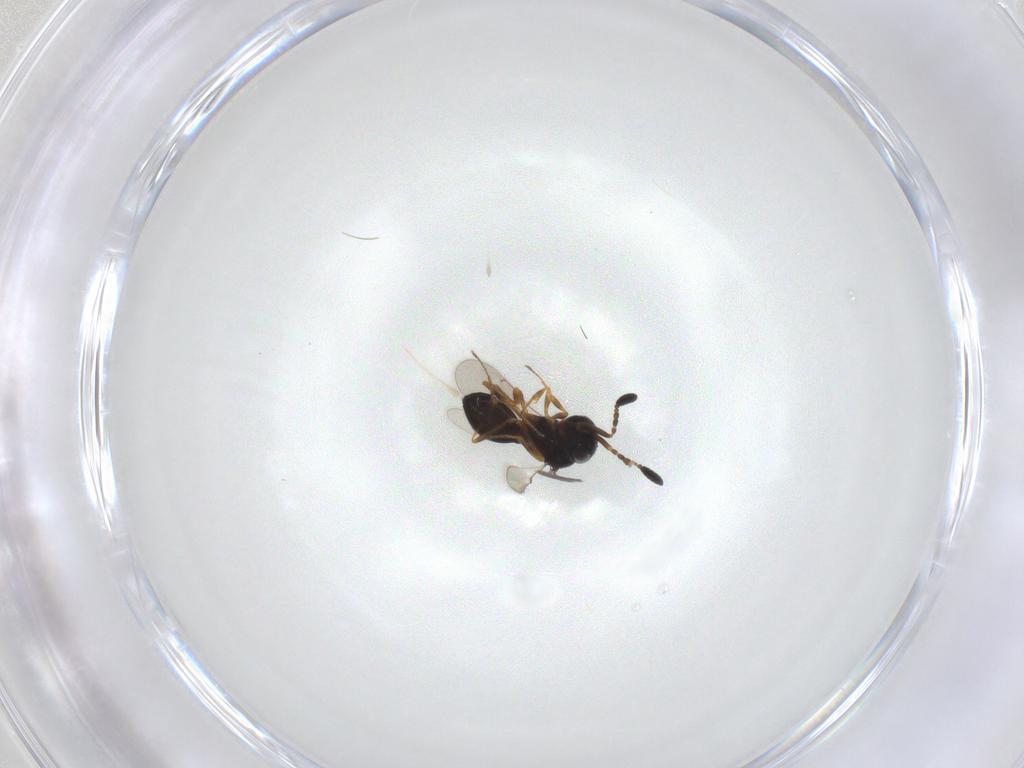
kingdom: Animalia
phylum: Arthropoda
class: Insecta
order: Hymenoptera
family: Scelionidae
